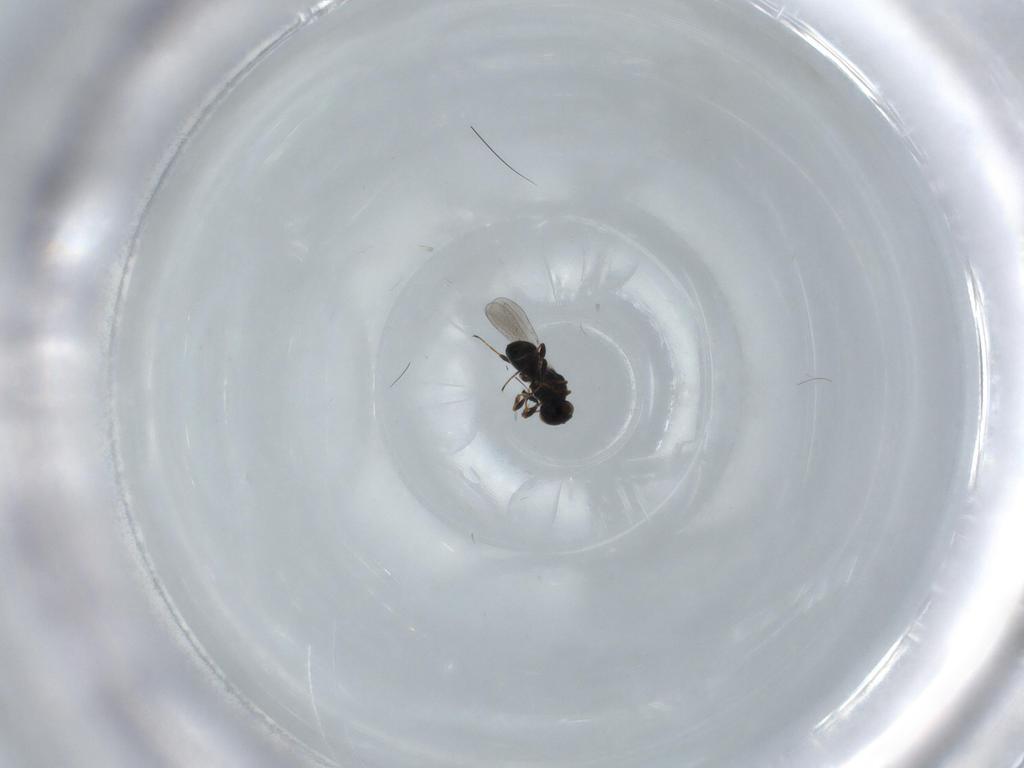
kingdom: Animalia
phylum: Arthropoda
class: Insecta
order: Hymenoptera
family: Platygastridae
